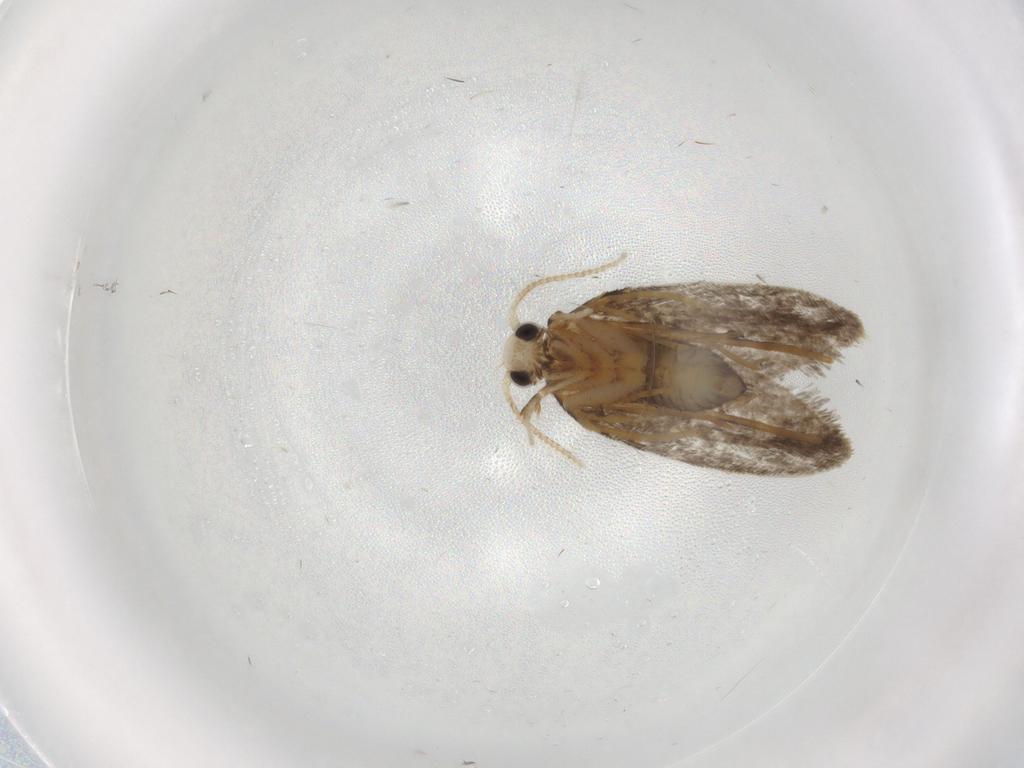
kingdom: Animalia
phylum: Arthropoda
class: Insecta
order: Lepidoptera
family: Psychidae
